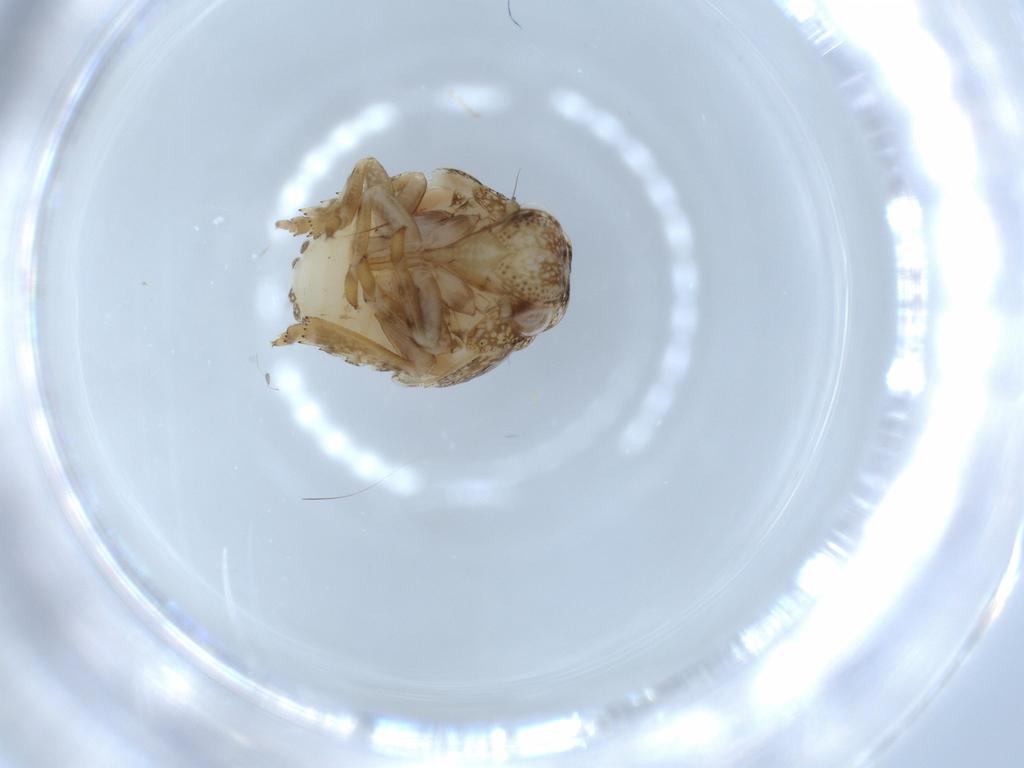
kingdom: Animalia
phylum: Arthropoda
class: Insecta
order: Hemiptera
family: Acanaloniidae
